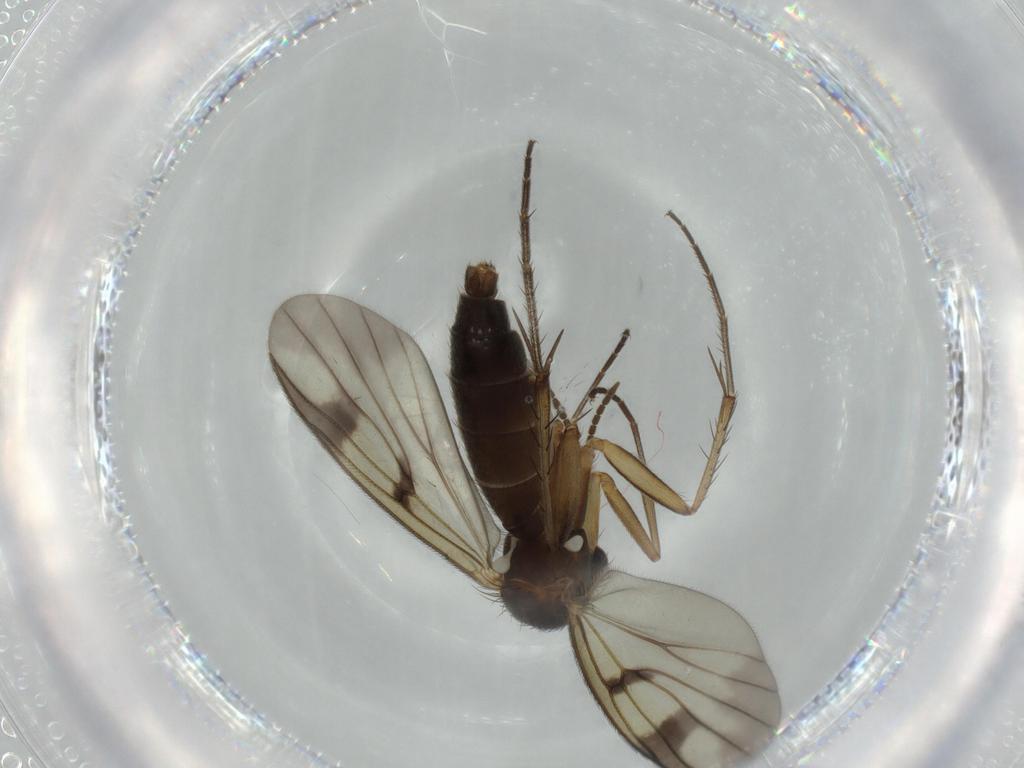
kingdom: Animalia
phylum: Arthropoda
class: Insecta
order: Diptera
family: Mycetophilidae
